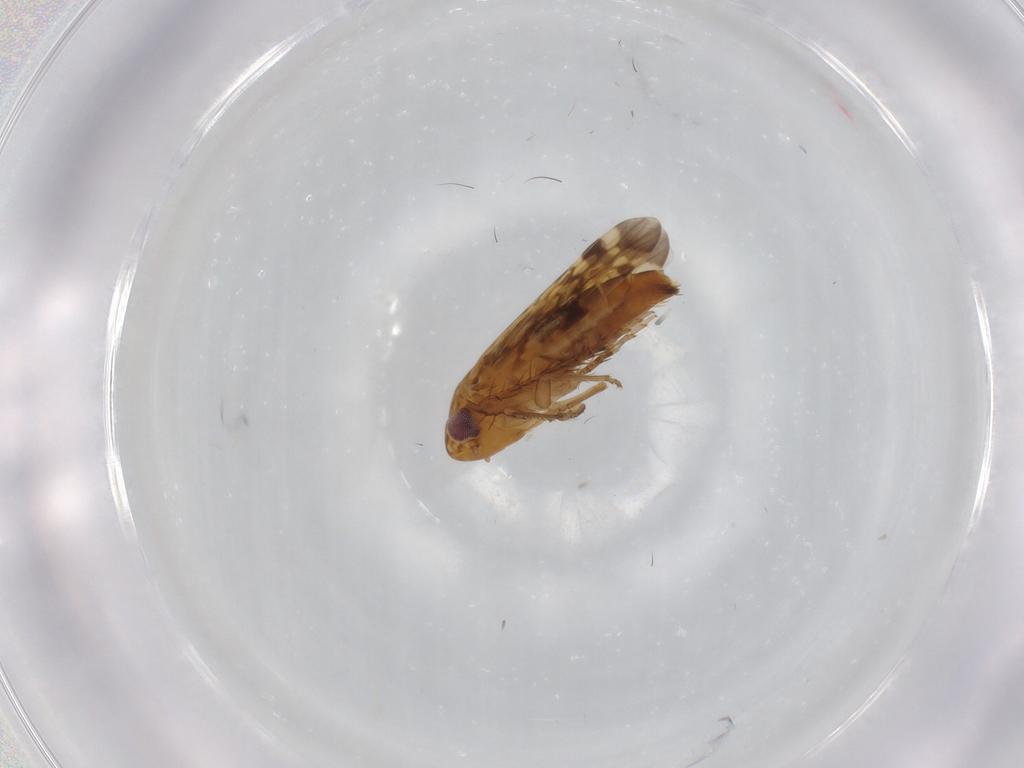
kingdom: Animalia
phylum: Arthropoda
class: Insecta
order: Hemiptera
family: Cicadellidae
